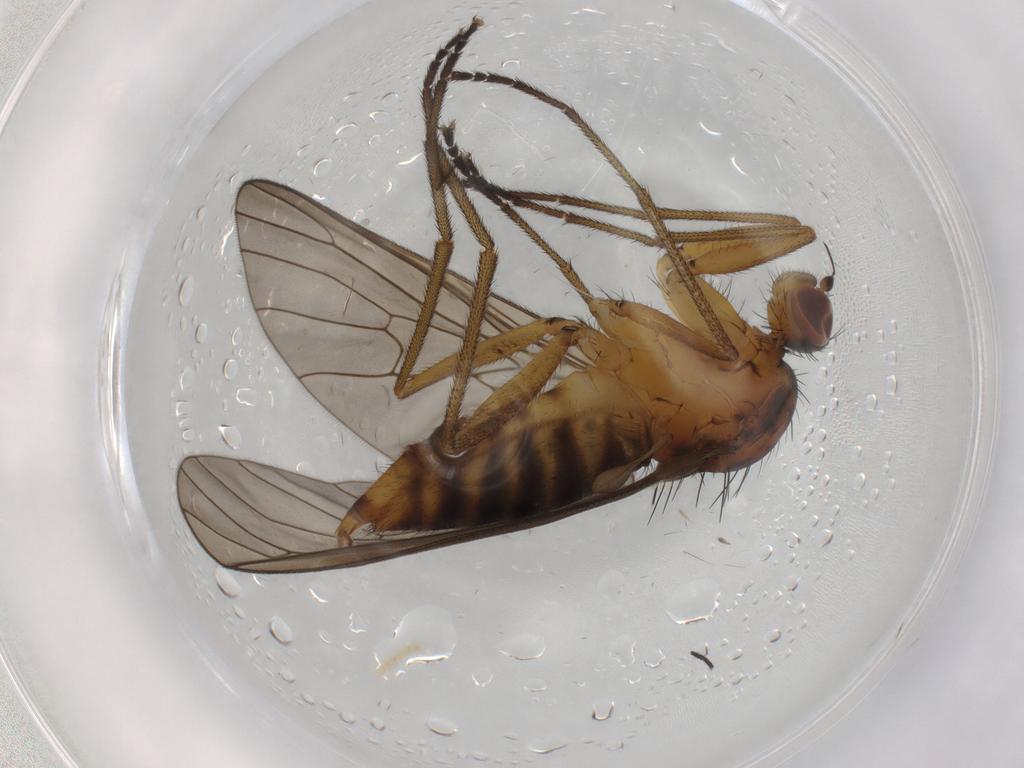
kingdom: Animalia
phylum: Arthropoda
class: Insecta
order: Diptera
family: Brachystomatidae
